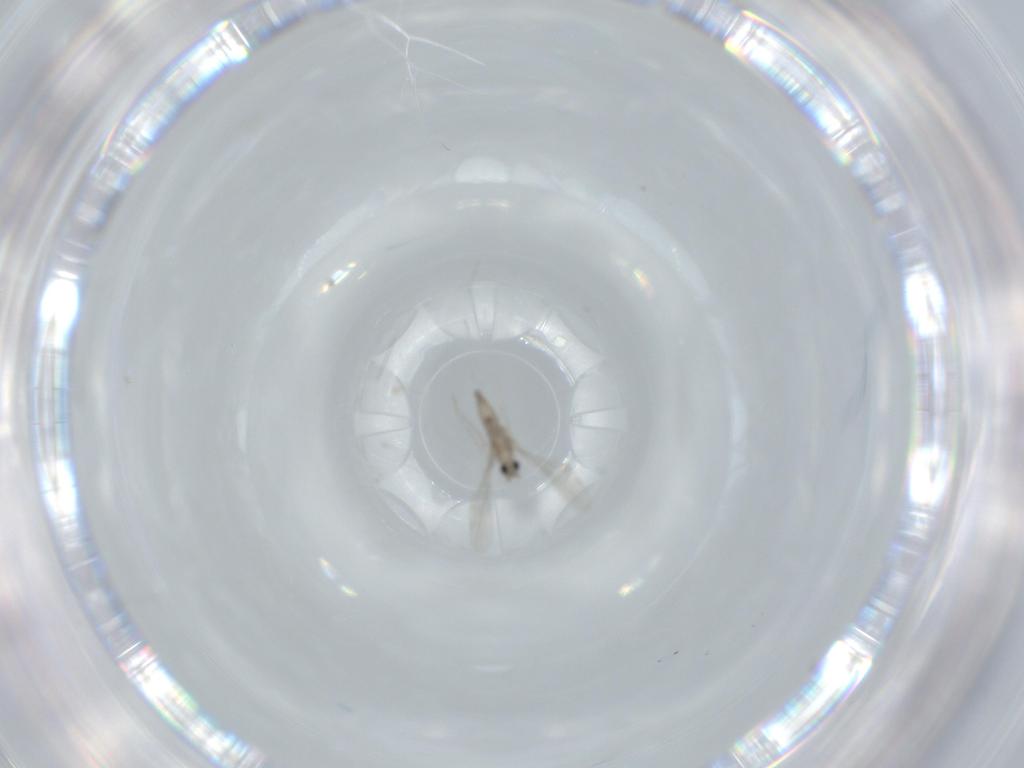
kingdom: Animalia
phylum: Arthropoda
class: Insecta
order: Diptera
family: Cecidomyiidae
